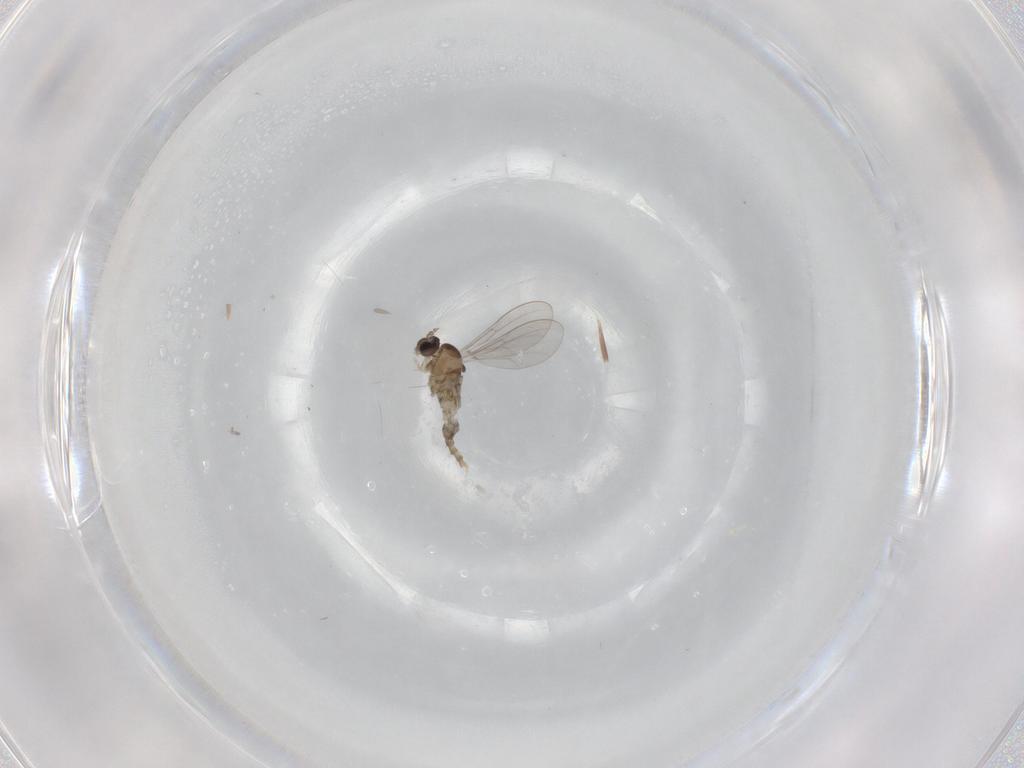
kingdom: Animalia
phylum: Arthropoda
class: Insecta
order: Diptera
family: Cecidomyiidae
